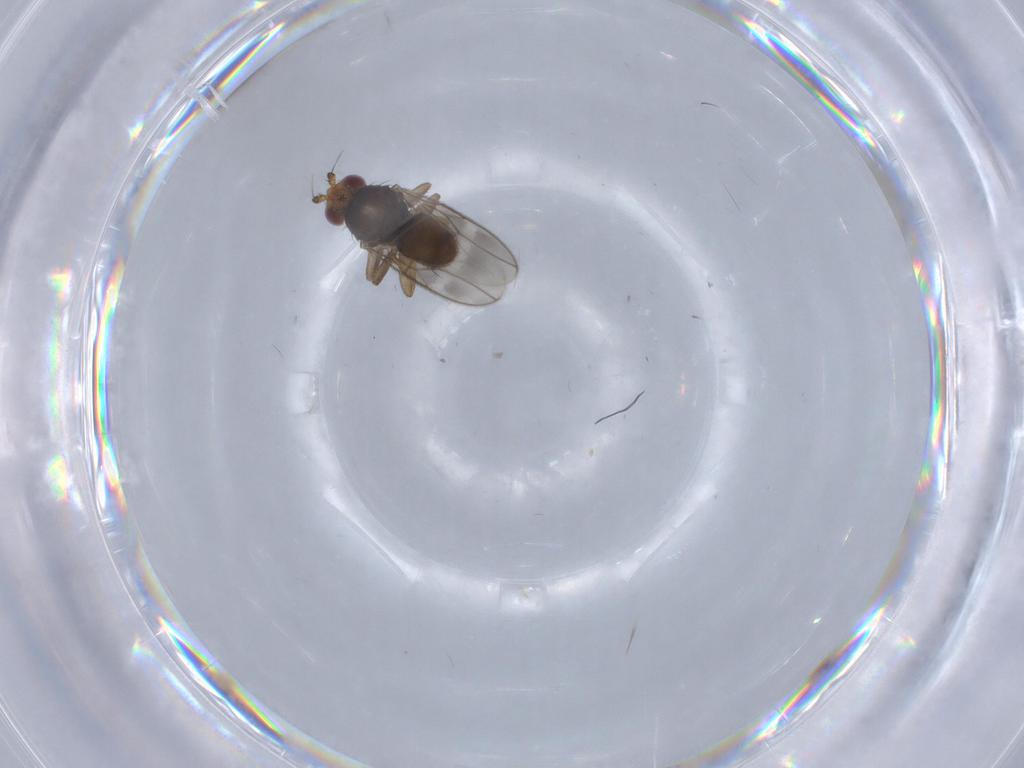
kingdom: Animalia
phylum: Arthropoda
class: Insecta
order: Diptera
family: Sphaeroceridae
